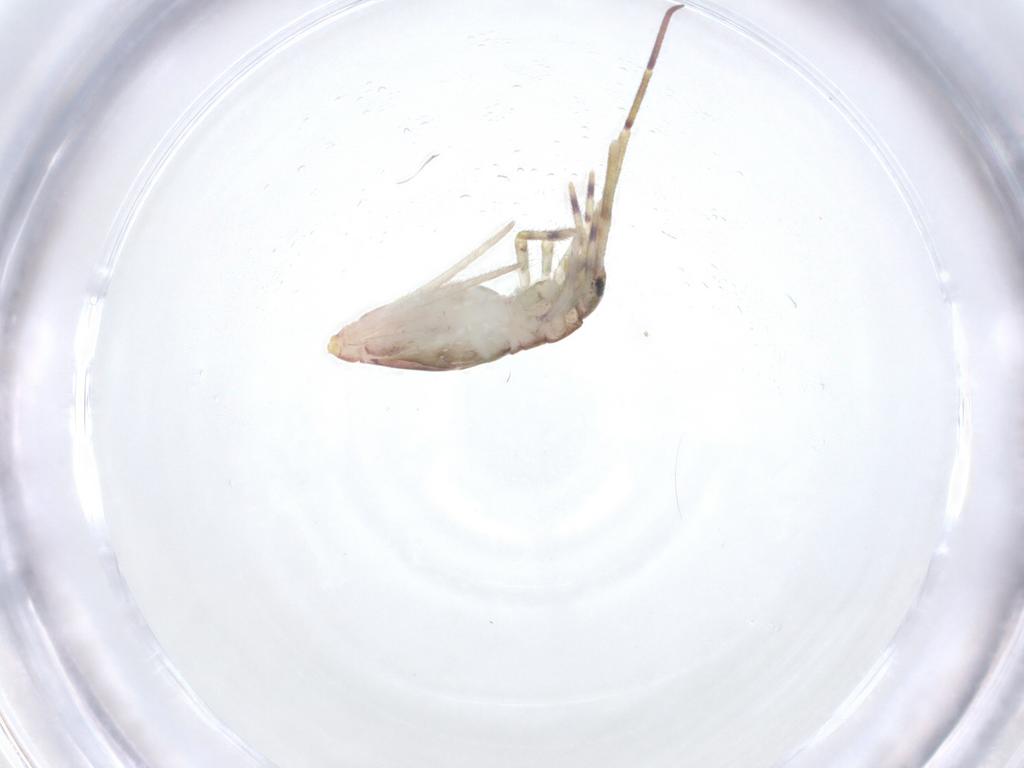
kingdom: Animalia
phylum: Arthropoda
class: Collembola
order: Entomobryomorpha
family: Entomobryidae
